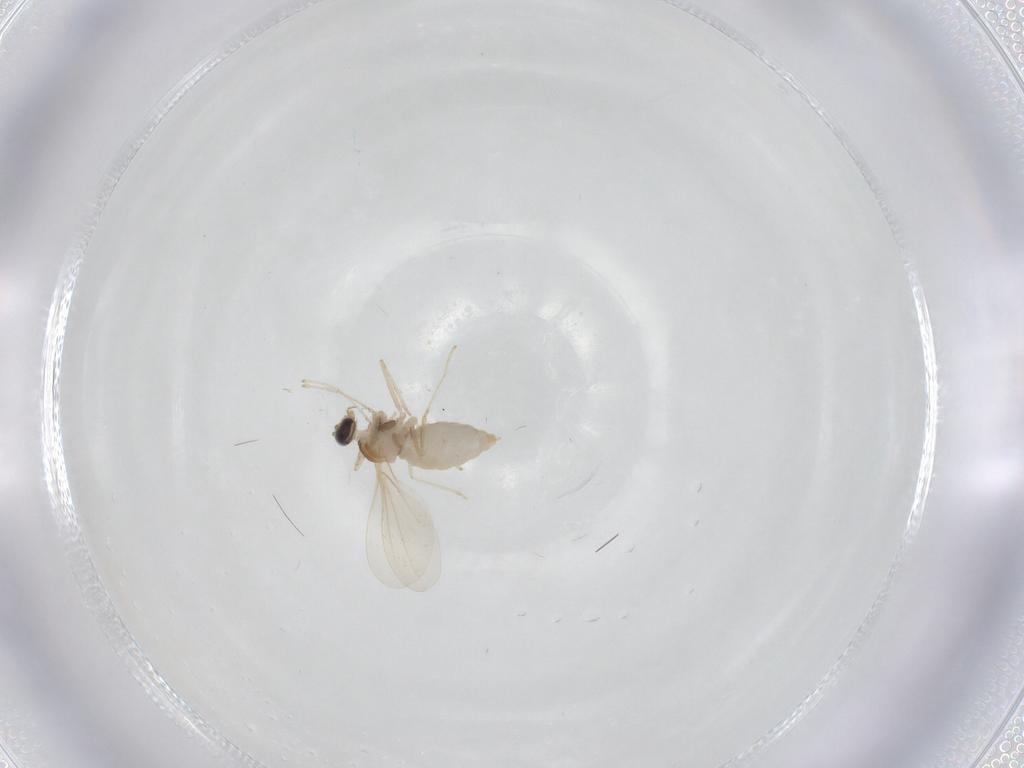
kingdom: Animalia
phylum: Arthropoda
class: Insecta
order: Diptera
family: Cecidomyiidae
